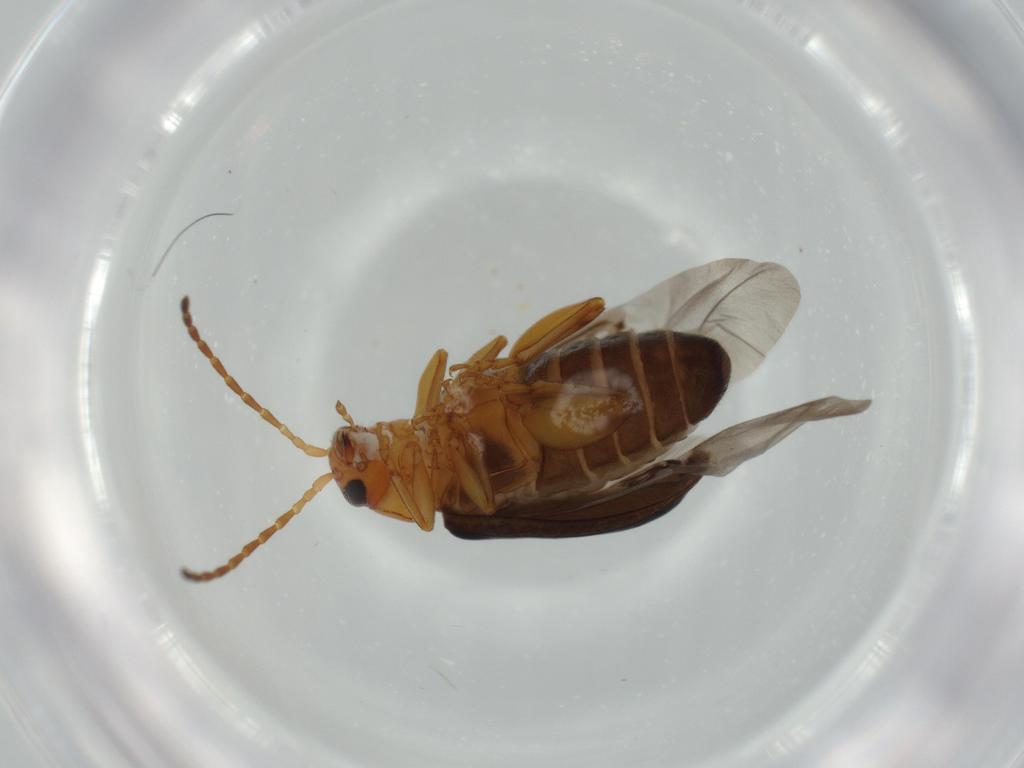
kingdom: Animalia
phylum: Arthropoda
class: Insecta
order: Coleoptera
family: Chrysomelidae
